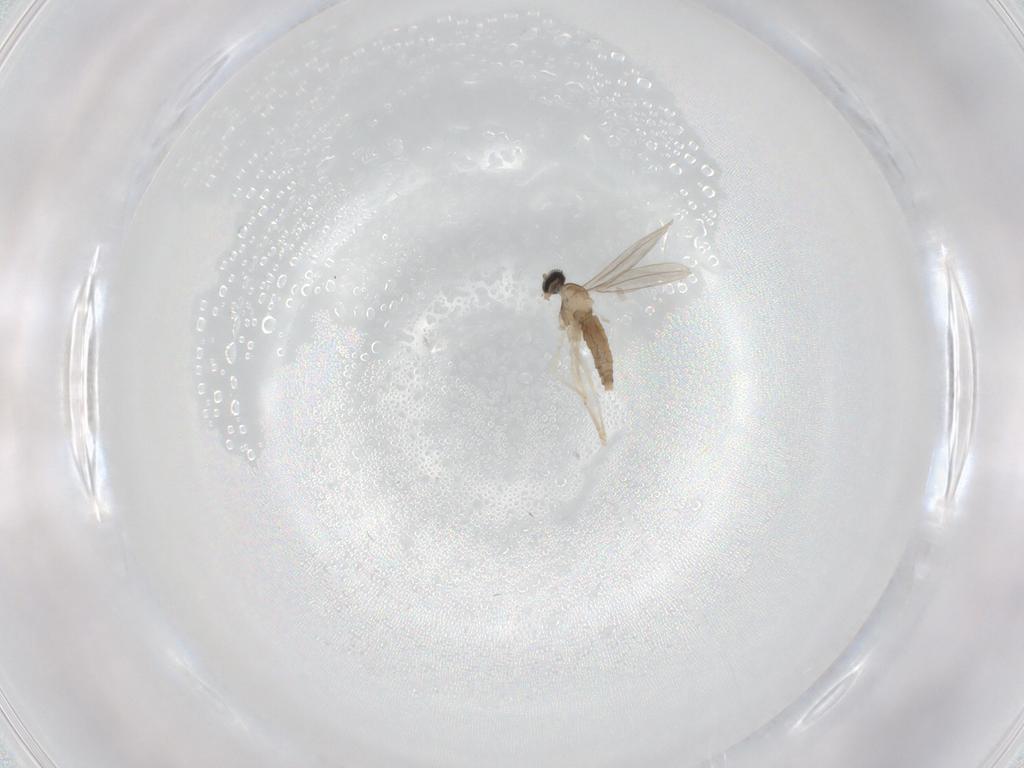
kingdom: Animalia
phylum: Arthropoda
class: Insecta
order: Diptera
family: Cecidomyiidae
